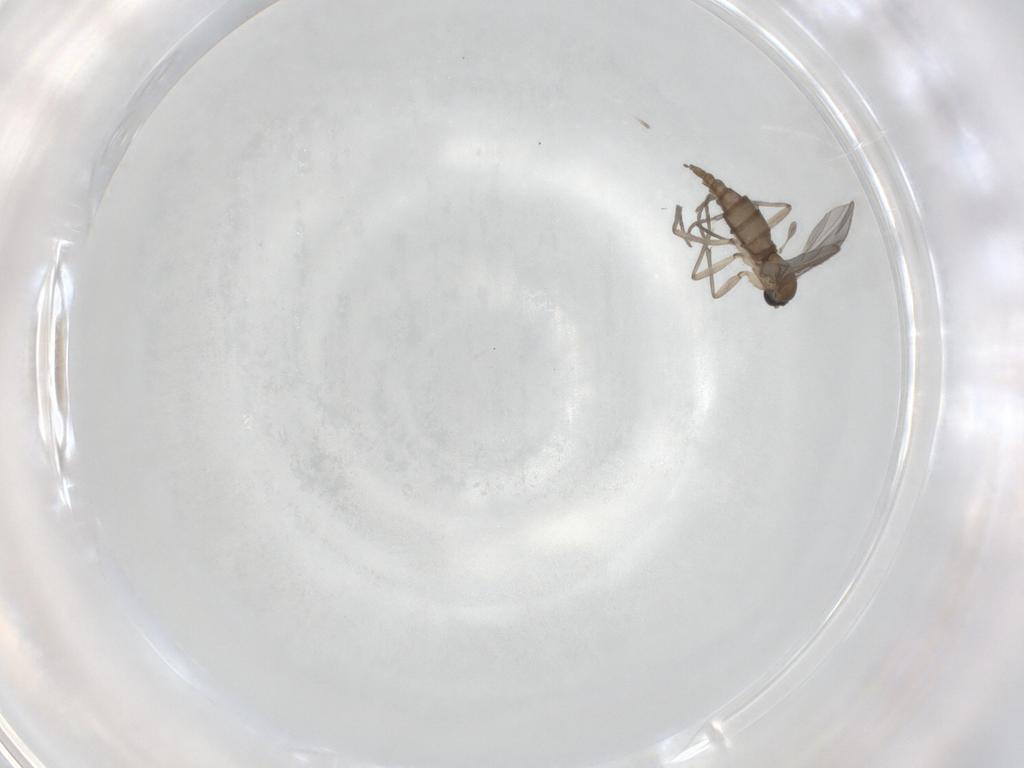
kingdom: Animalia
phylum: Arthropoda
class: Insecta
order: Diptera
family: Sciaridae
